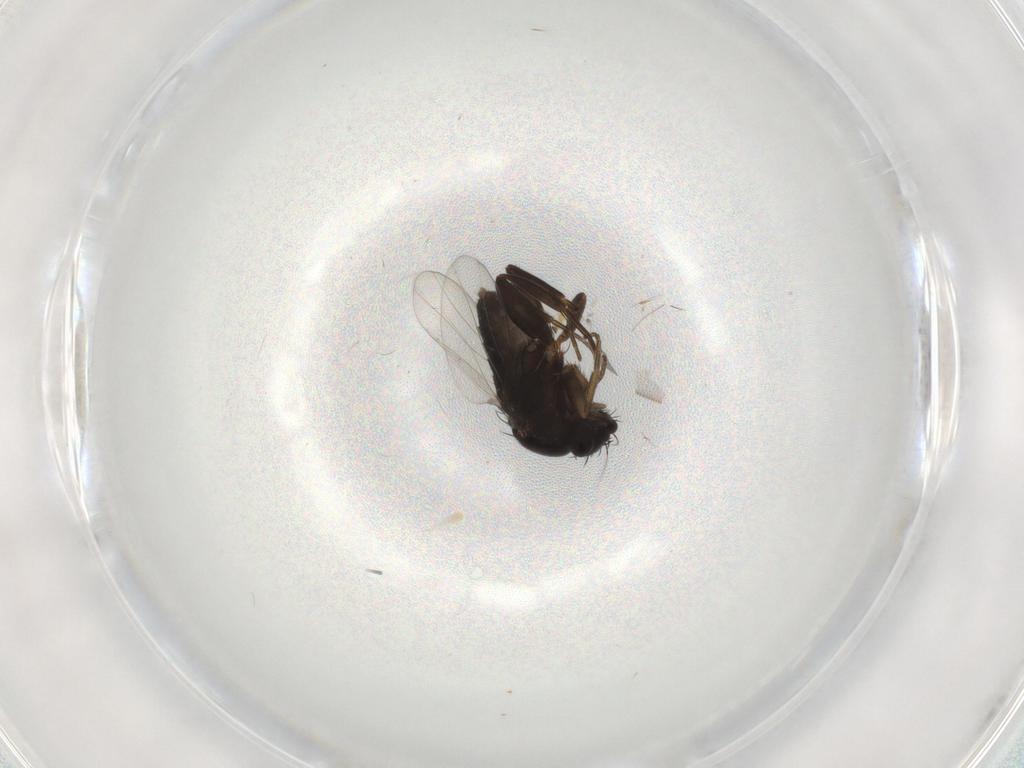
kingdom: Animalia
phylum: Arthropoda
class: Insecta
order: Diptera
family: Phoridae
